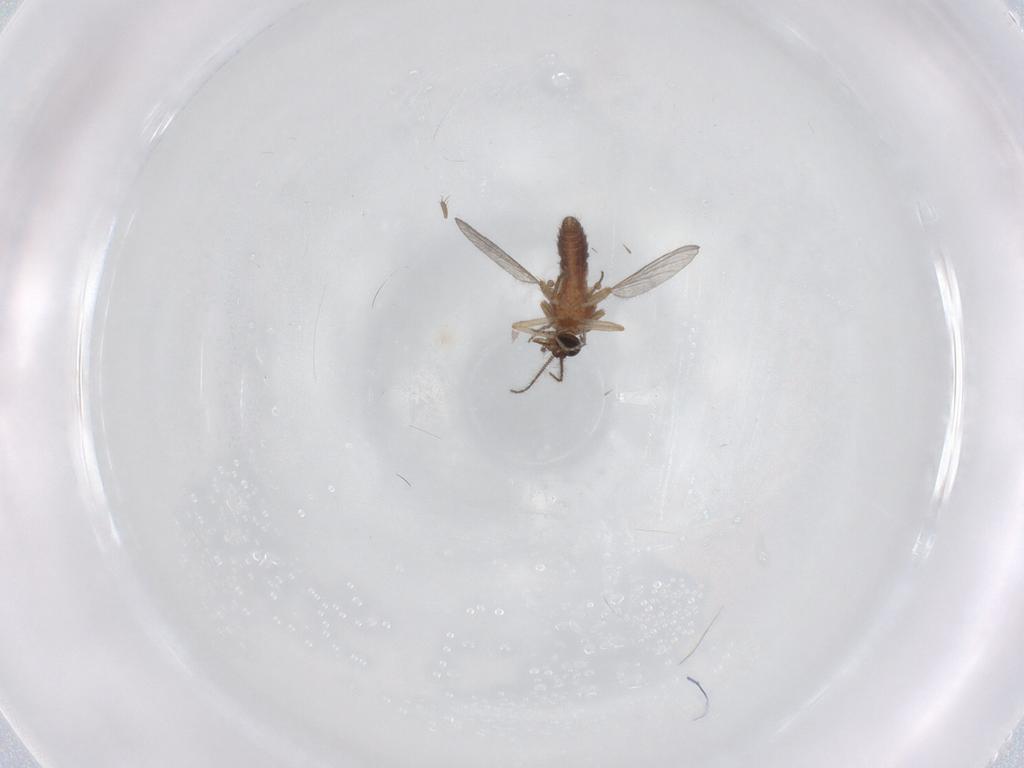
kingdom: Animalia
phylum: Arthropoda
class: Insecta
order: Diptera
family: Ceratopogonidae
